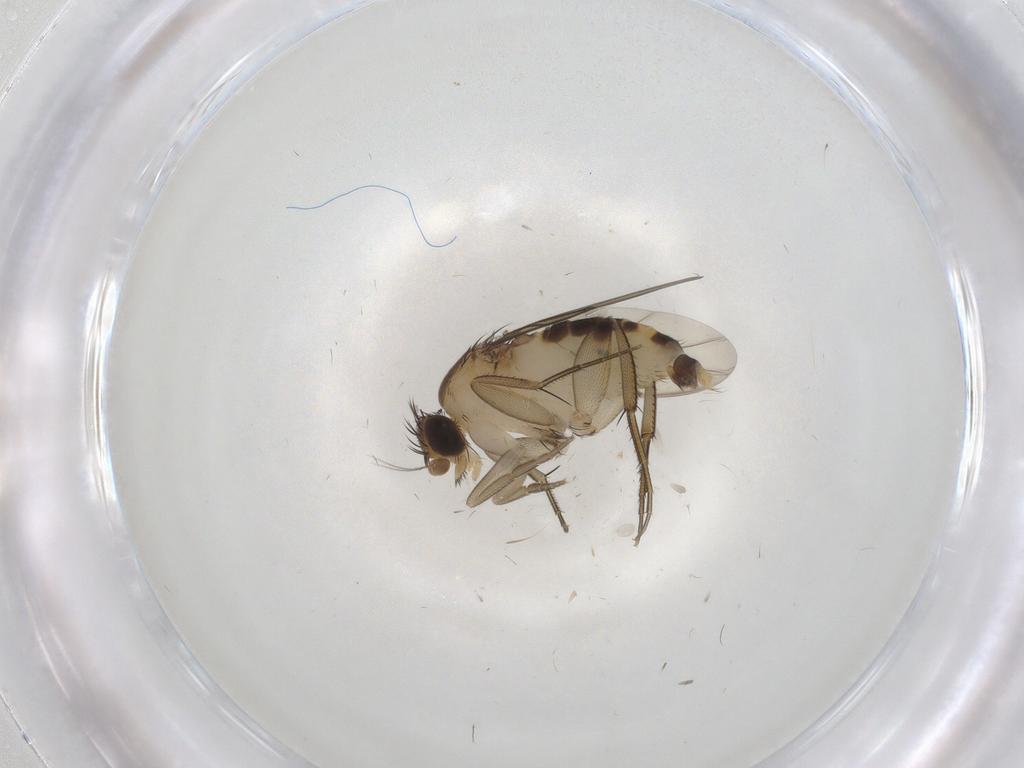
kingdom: Animalia
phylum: Arthropoda
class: Insecta
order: Diptera
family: Phoridae
